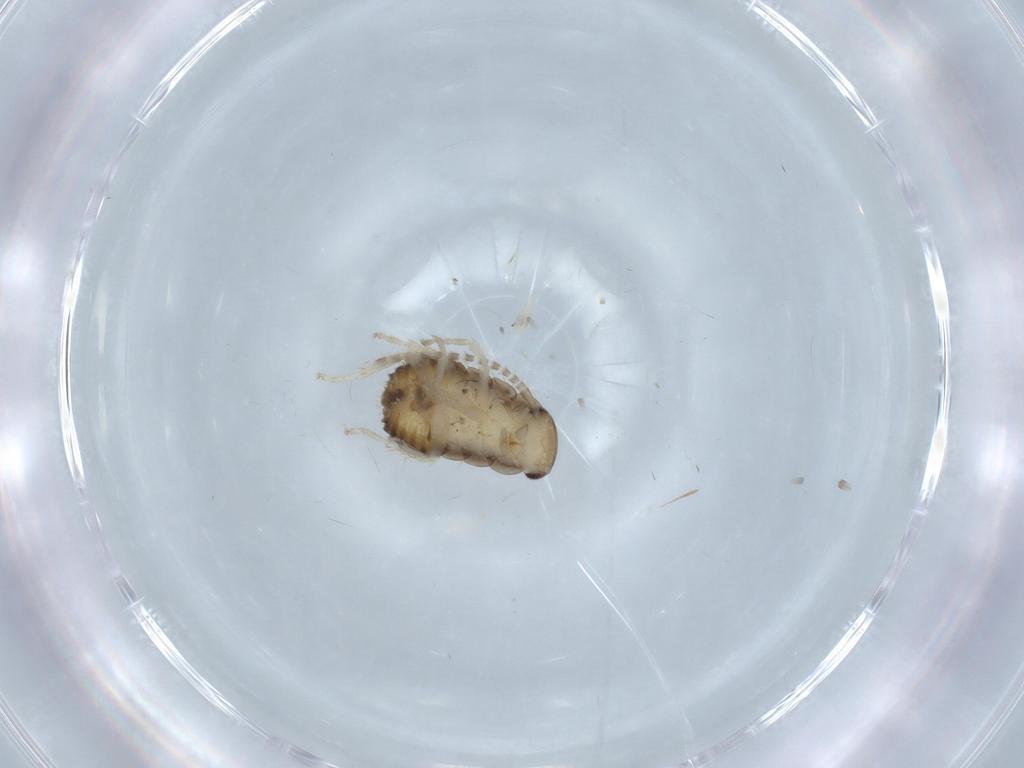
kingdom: Animalia
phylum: Arthropoda
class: Insecta
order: Blattodea
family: Ectobiidae
